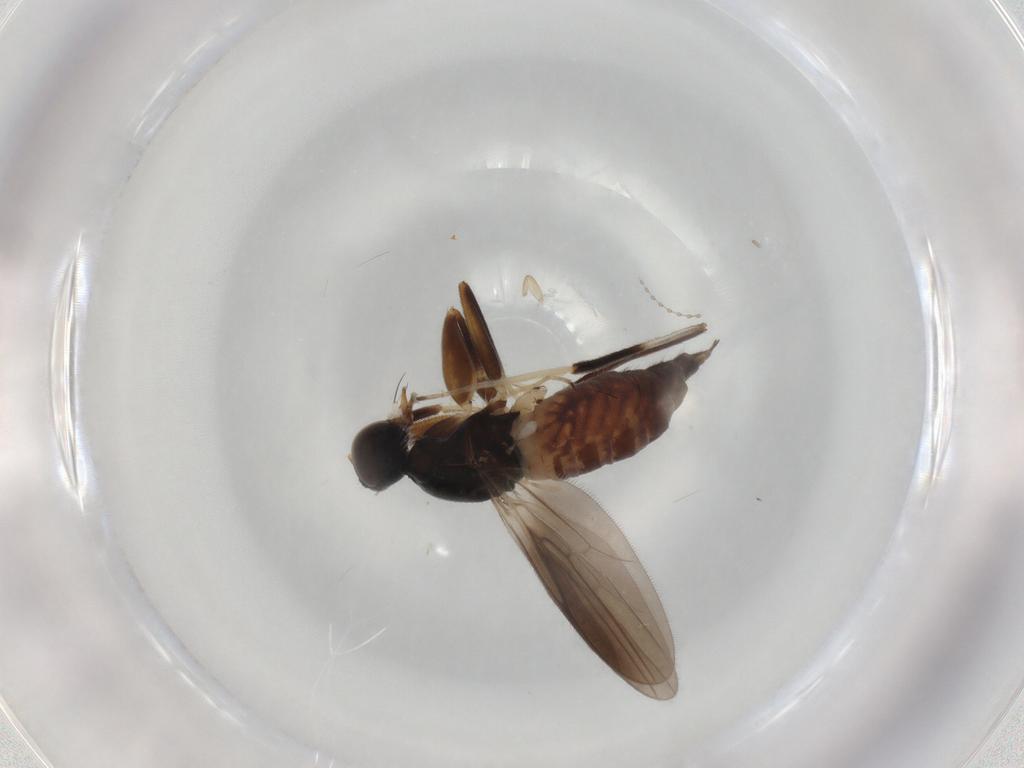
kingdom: Animalia
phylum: Arthropoda
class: Insecta
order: Diptera
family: Hybotidae
